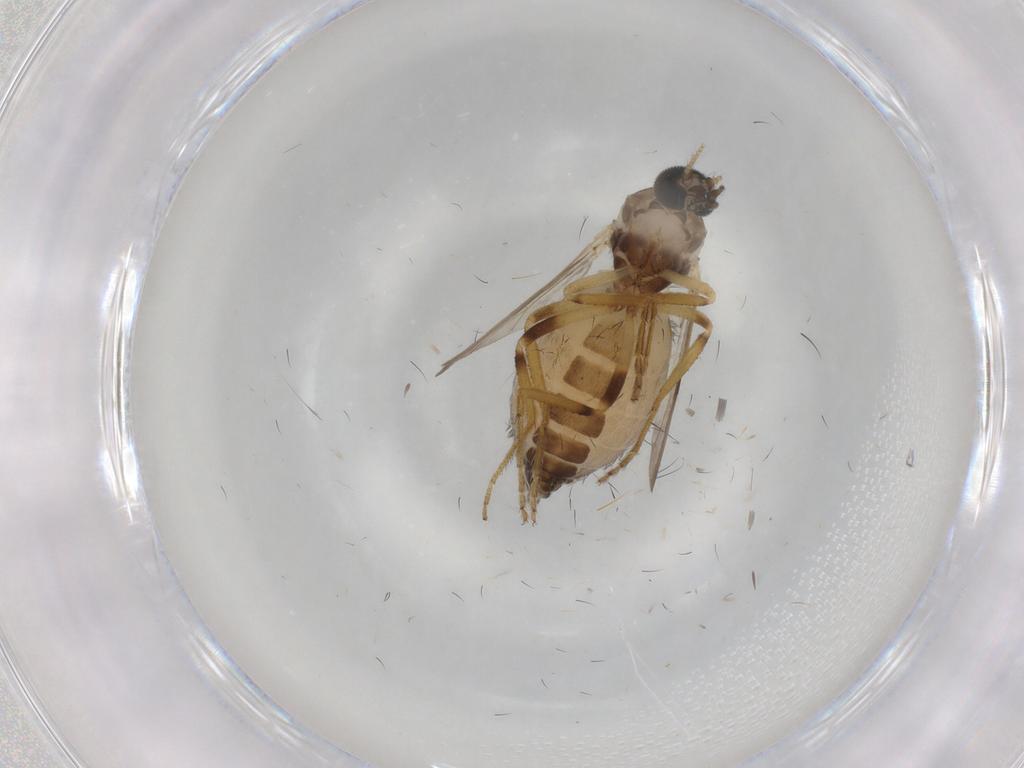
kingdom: Animalia
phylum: Arthropoda
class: Insecta
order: Diptera
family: Ceratopogonidae
